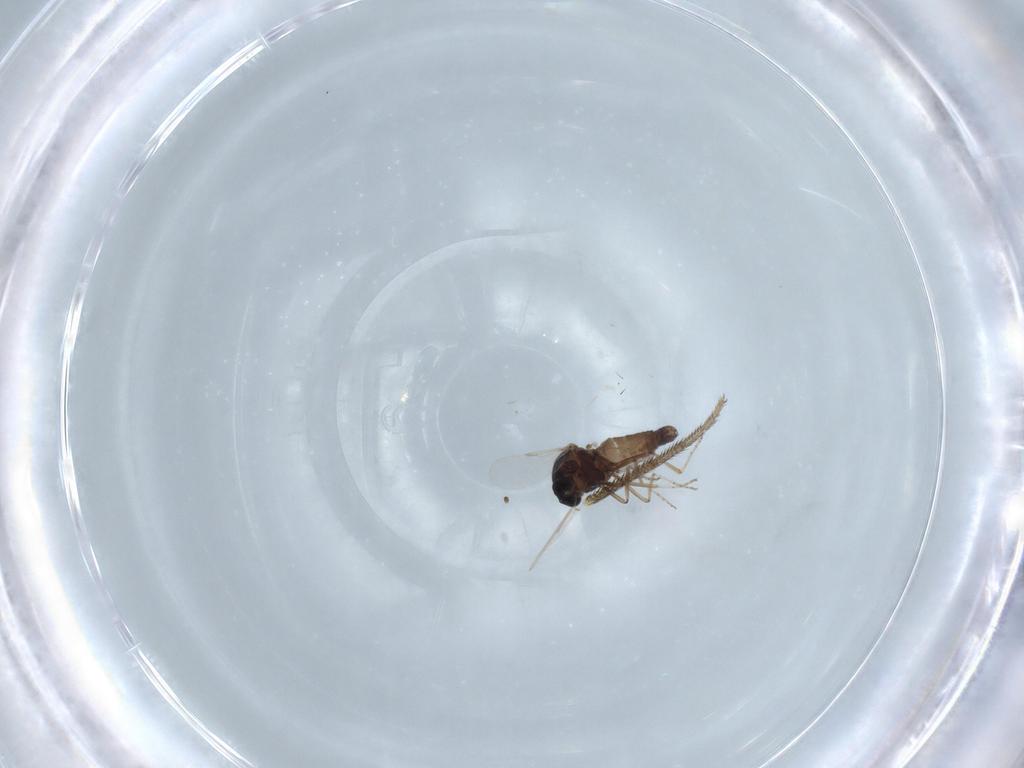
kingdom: Animalia
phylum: Arthropoda
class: Insecta
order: Diptera
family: Ceratopogonidae
